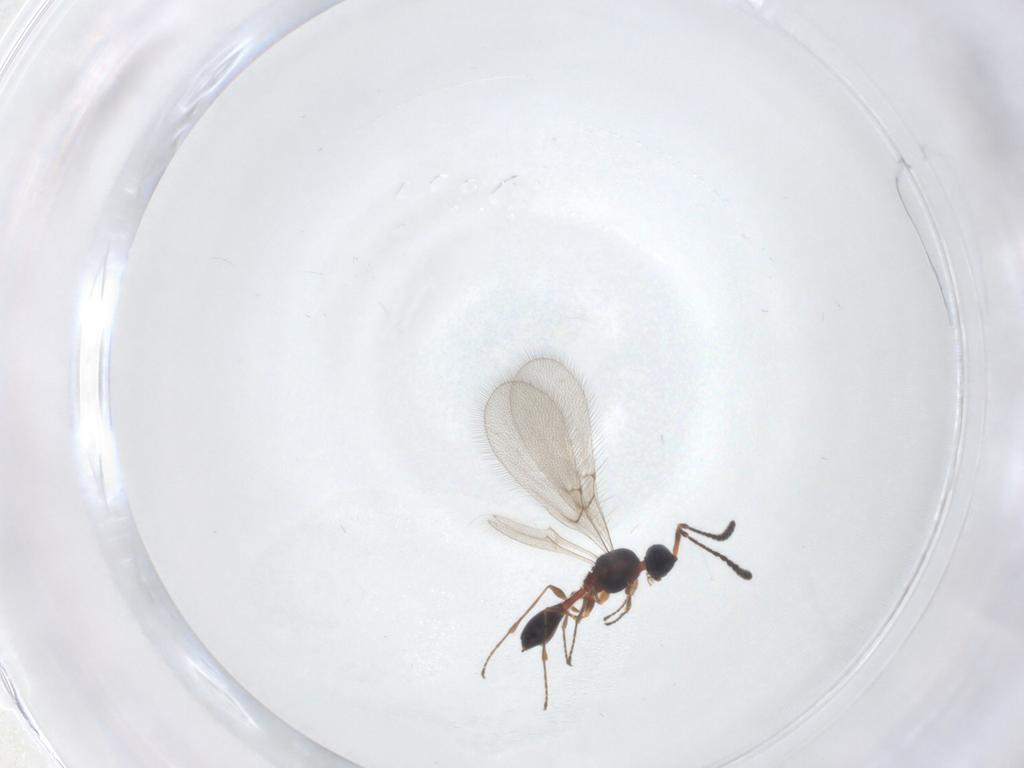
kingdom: Animalia
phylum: Arthropoda
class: Insecta
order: Hymenoptera
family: Diapriidae
